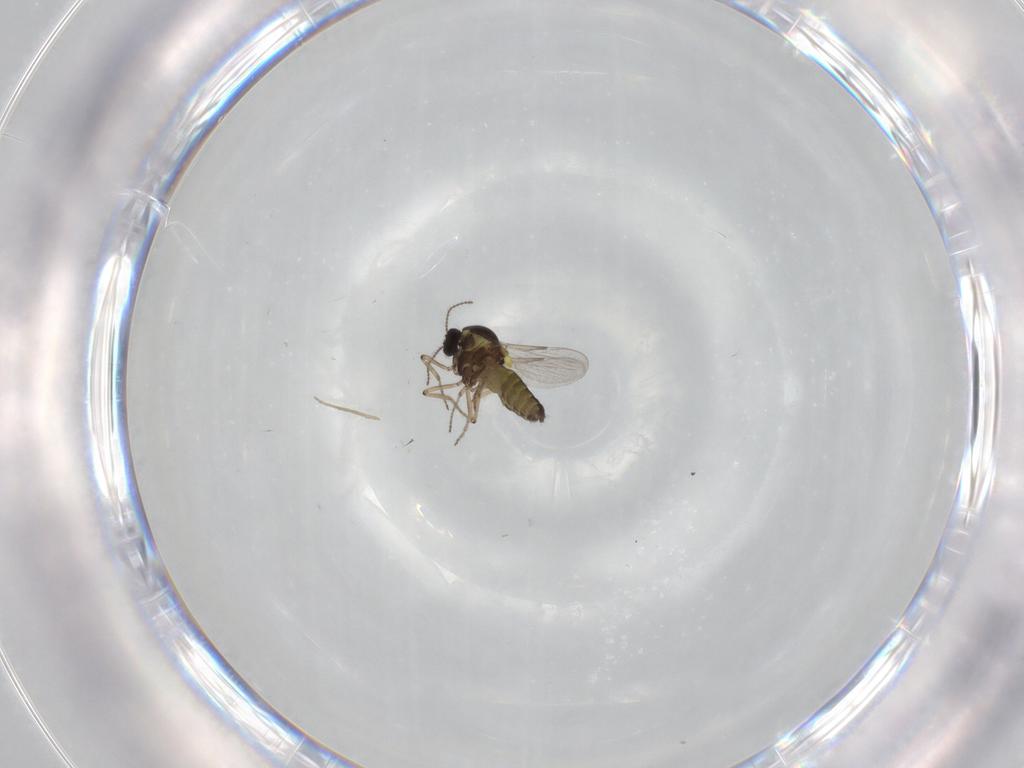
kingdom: Animalia
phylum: Arthropoda
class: Insecta
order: Diptera
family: Ceratopogonidae
